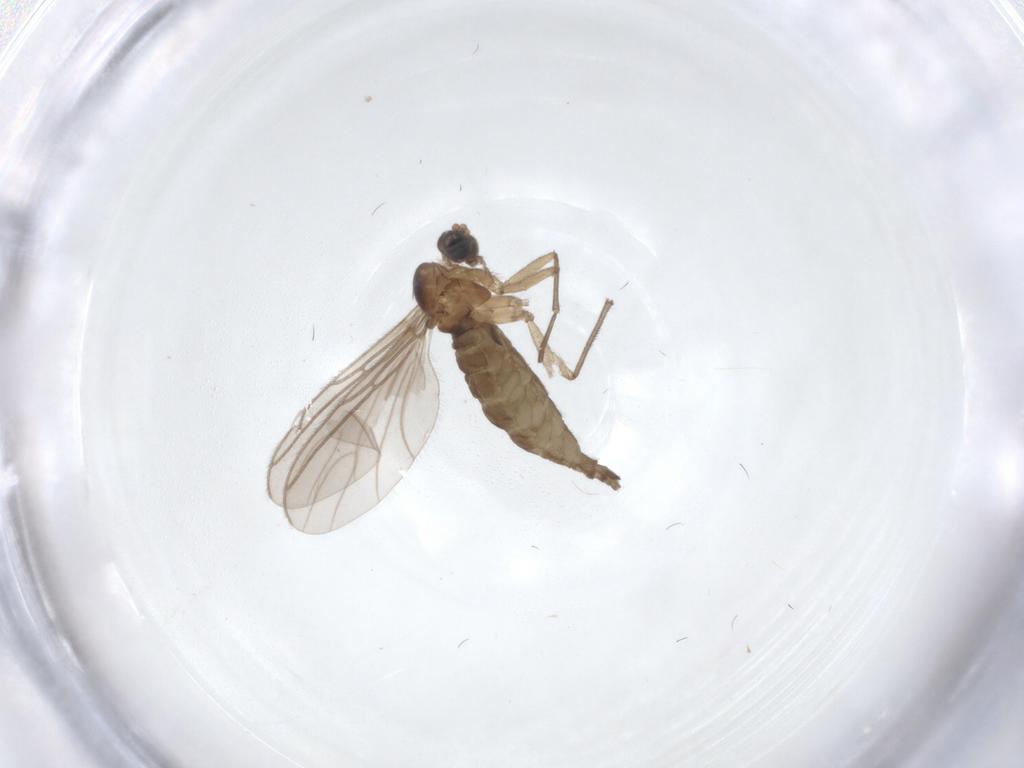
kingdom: Animalia
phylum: Arthropoda
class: Insecta
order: Diptera
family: Sciaridae
